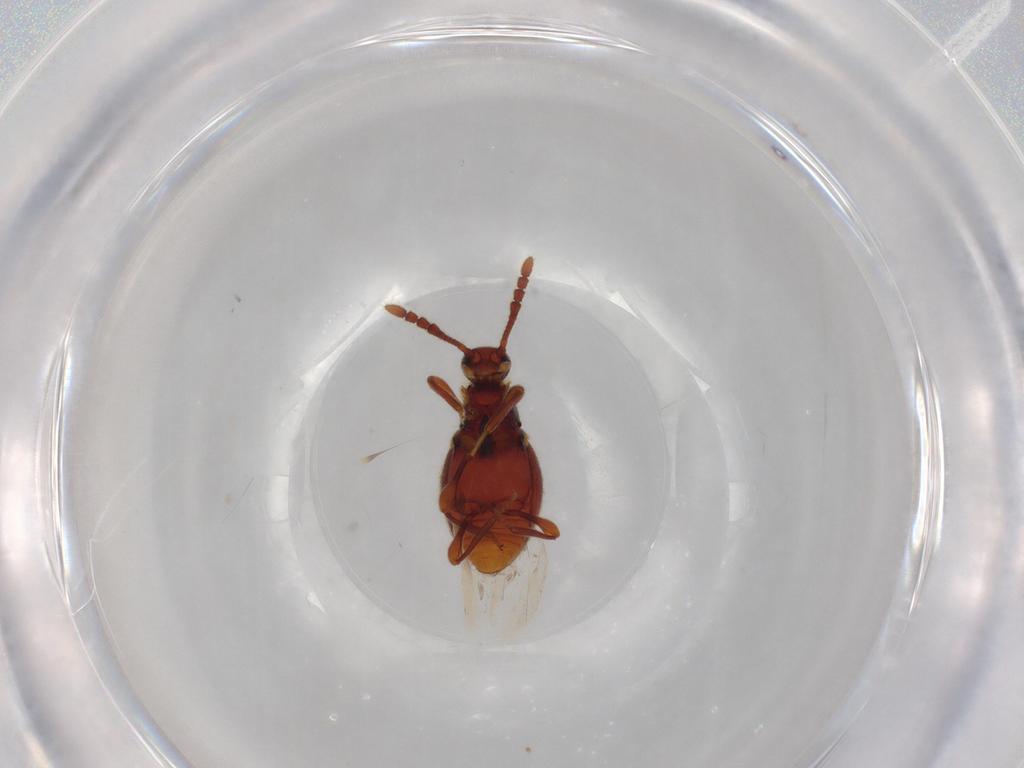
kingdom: Animalia
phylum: Arthropoda
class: Insecta
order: Coleoptera
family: Staphylinidae
